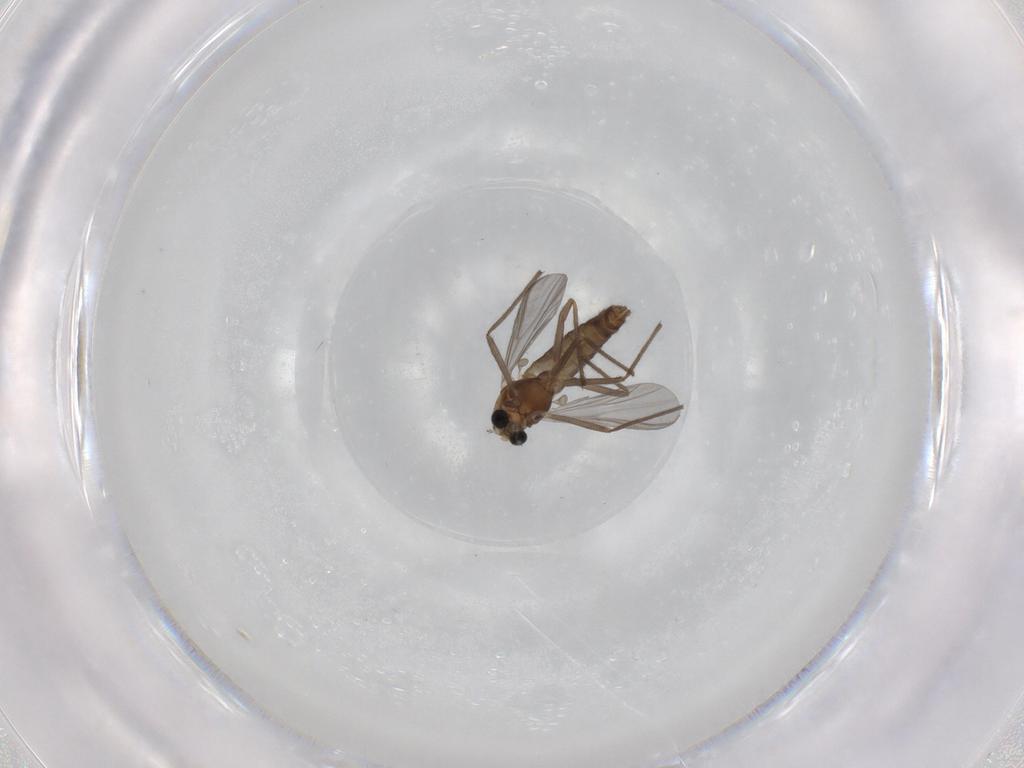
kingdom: Animalia
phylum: Arthropoda
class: Insecta
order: Diptera
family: Chironomidae
